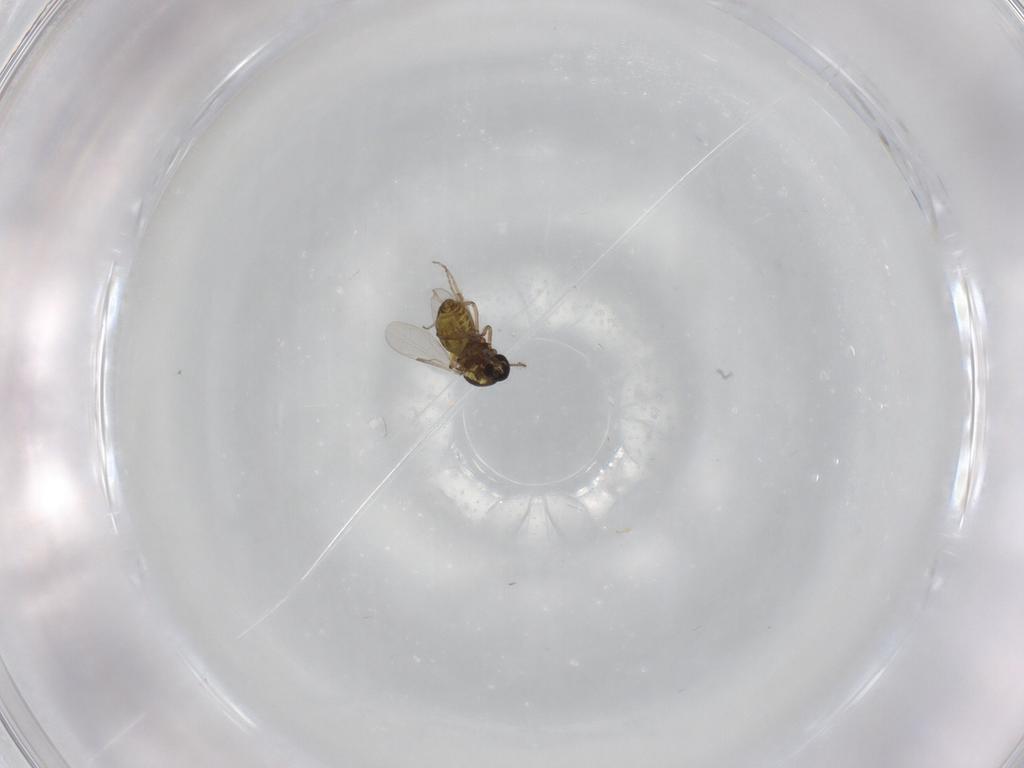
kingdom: Animalia
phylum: Arthropoda
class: Insecta
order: Diptera
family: Ceratopogonidae
